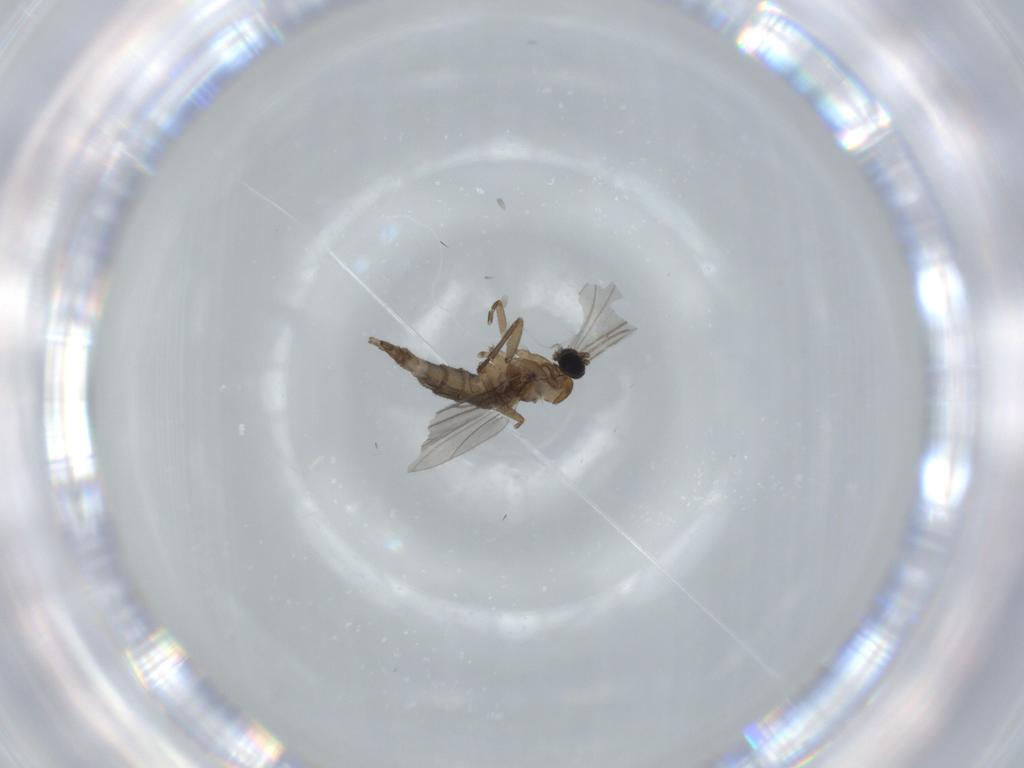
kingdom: Animalia
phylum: Arthropoda
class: Insecta
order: Diptera
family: Sciaridae
